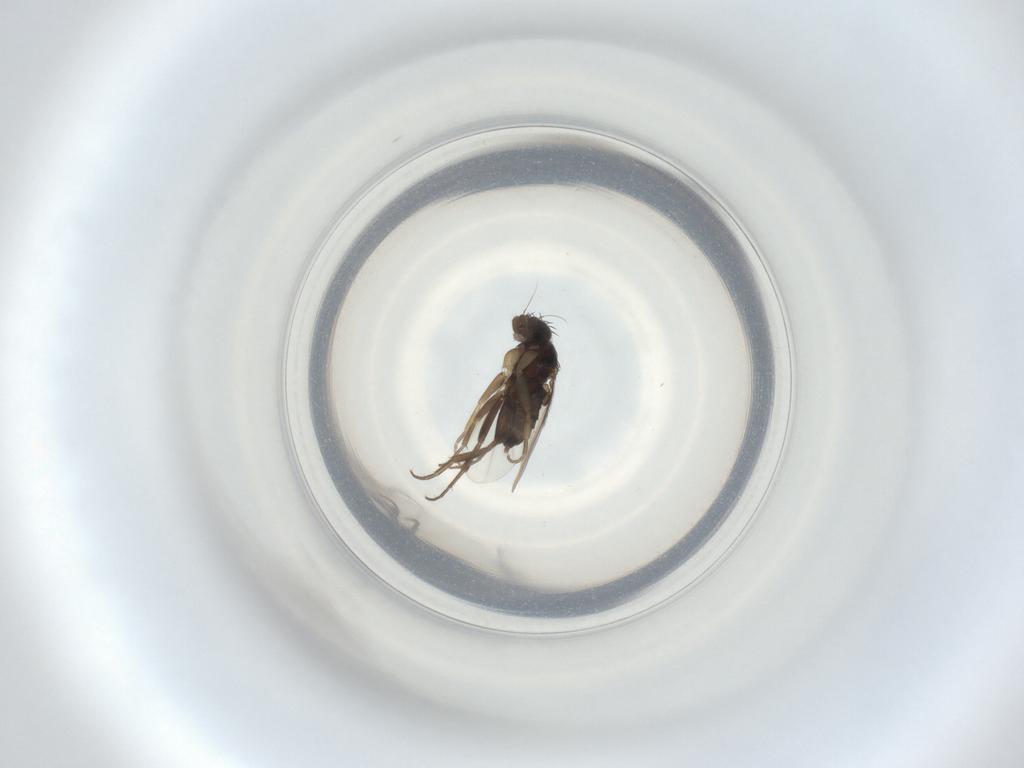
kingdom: Animalia
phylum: Arthropoda
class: Insecta
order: Diptera
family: Phoridae
